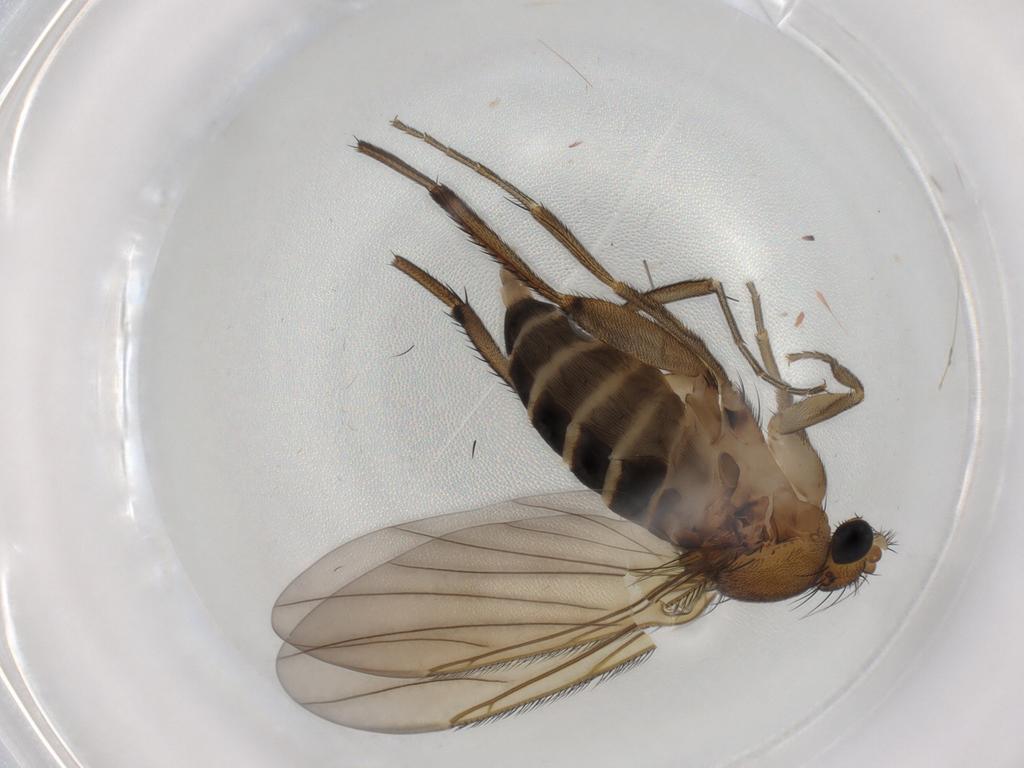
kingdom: Animalia
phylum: Arthropoda
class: Insecta
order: Diptera
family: Phoridae
